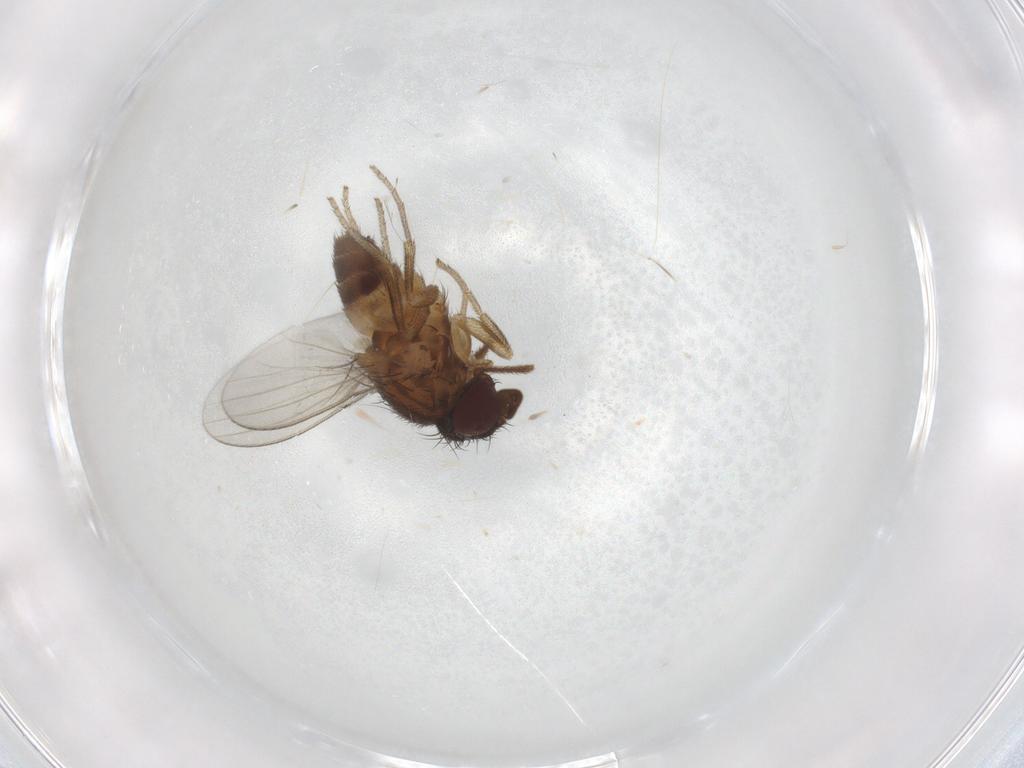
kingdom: Animalia
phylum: Arthropoda
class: Insecta
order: Diptera
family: Milichiidae
